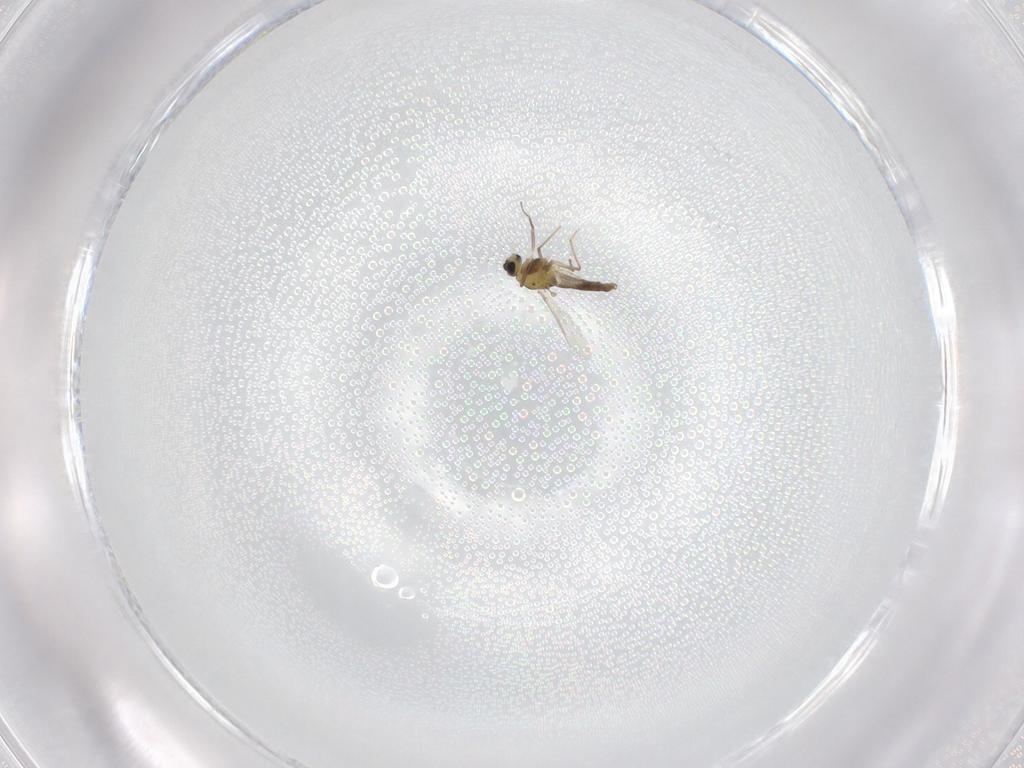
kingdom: Animalia
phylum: Arthropoda
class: Insecta
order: Diptera
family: Chironomidae
